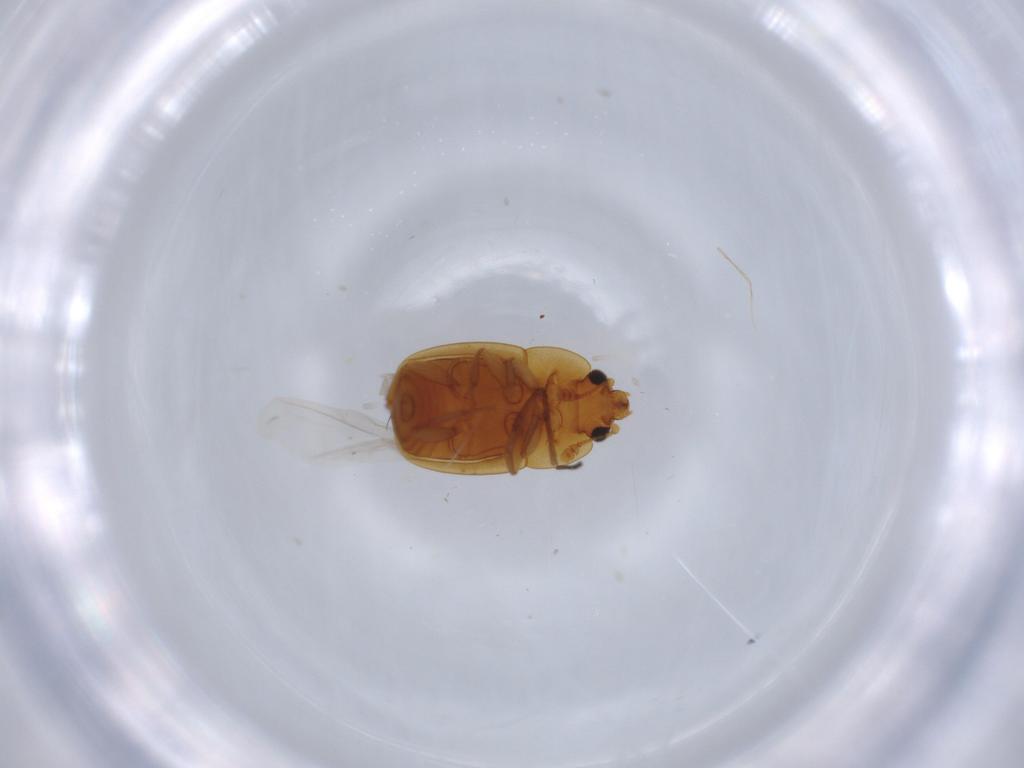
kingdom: Animalia
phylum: Arthropoda
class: Insecta
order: Coleoptera
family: Nitidulidae
